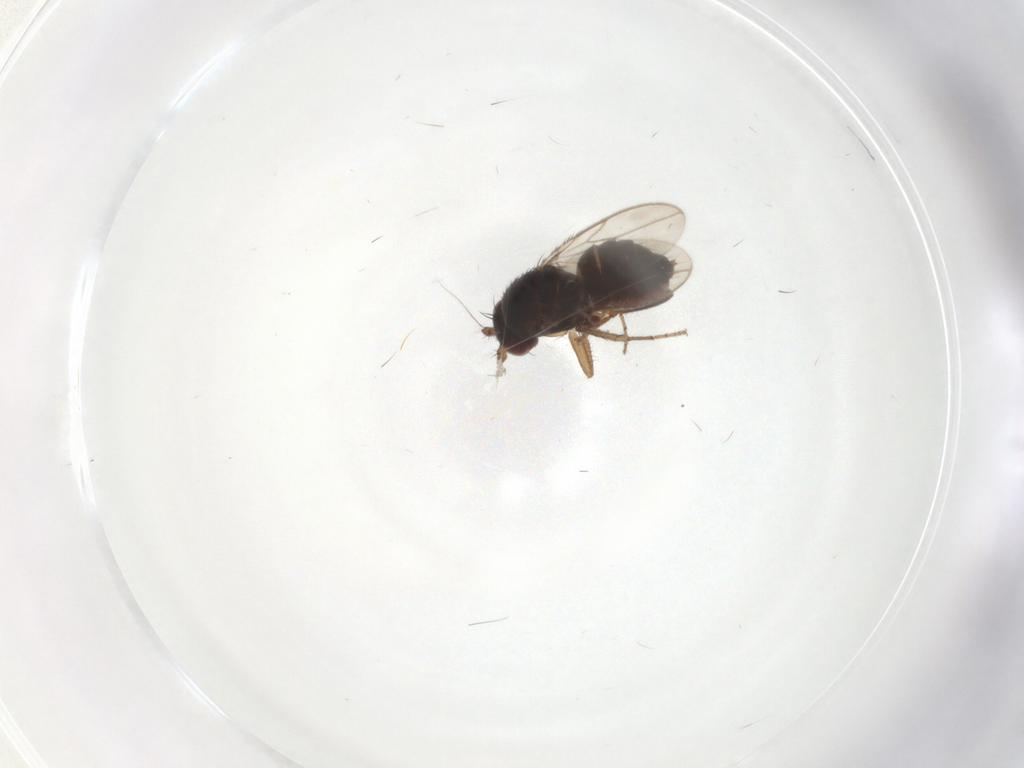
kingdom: Animalia
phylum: Arthropoda
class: Insecta
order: Diptera
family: Sphaeroceridae
